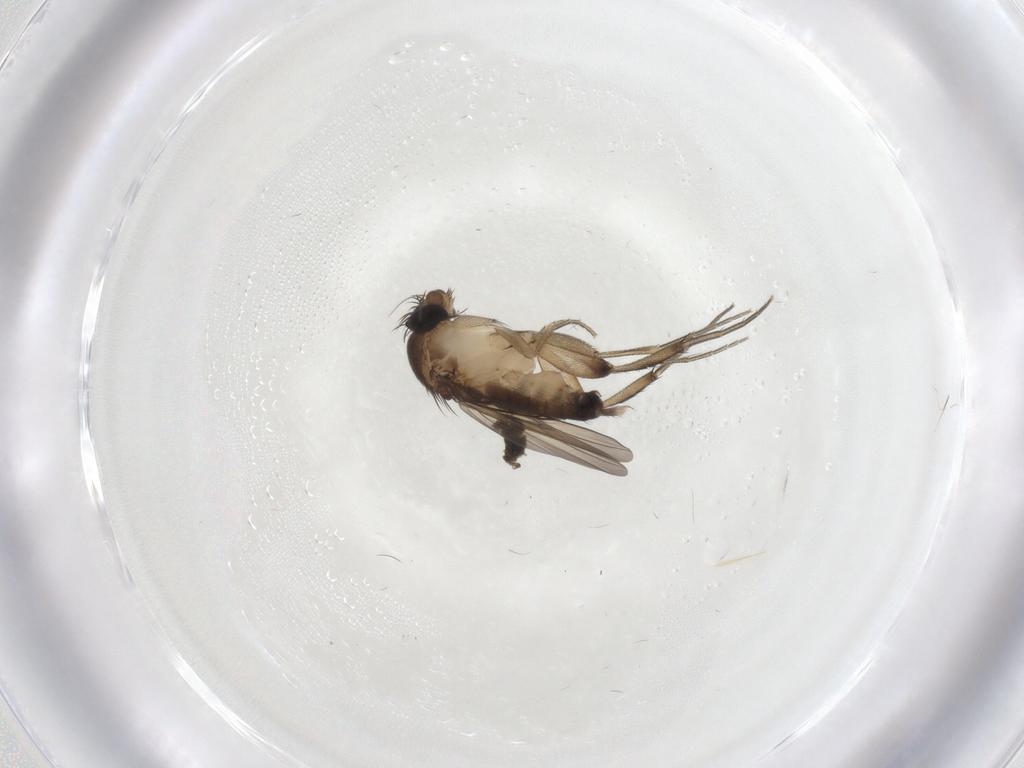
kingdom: Animalia
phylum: Arthropoda
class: Insecta
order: Diptera
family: Phoridae
